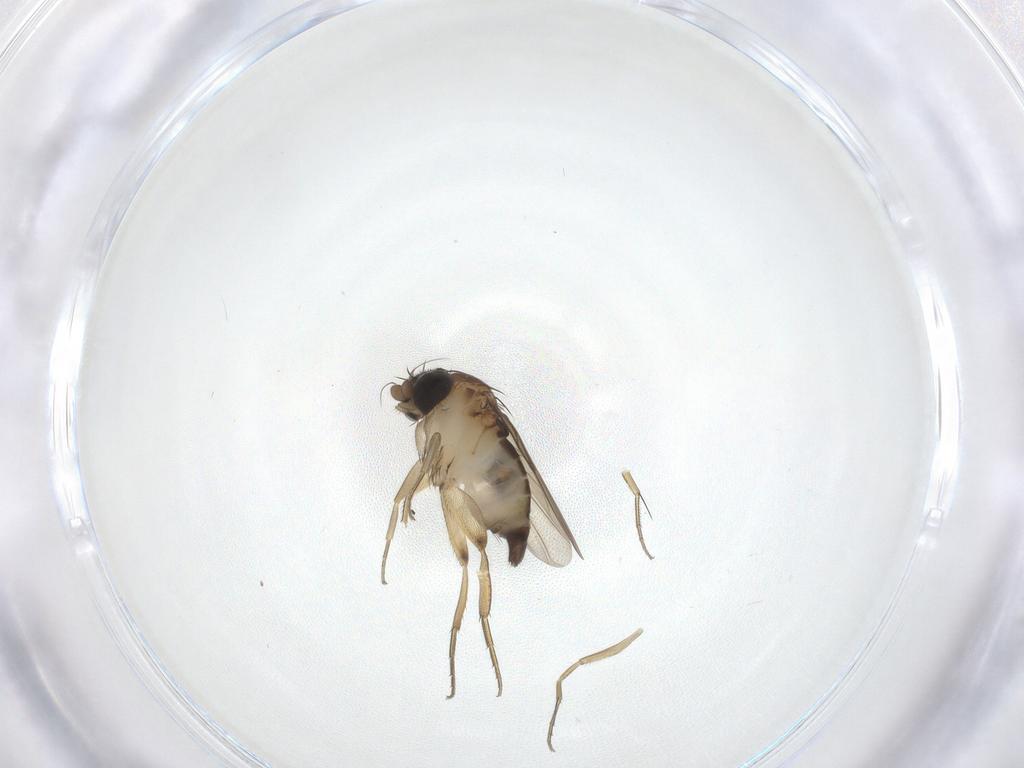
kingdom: Animalia
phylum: Arthropoda
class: Insecta
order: Diptera
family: Phoridae
